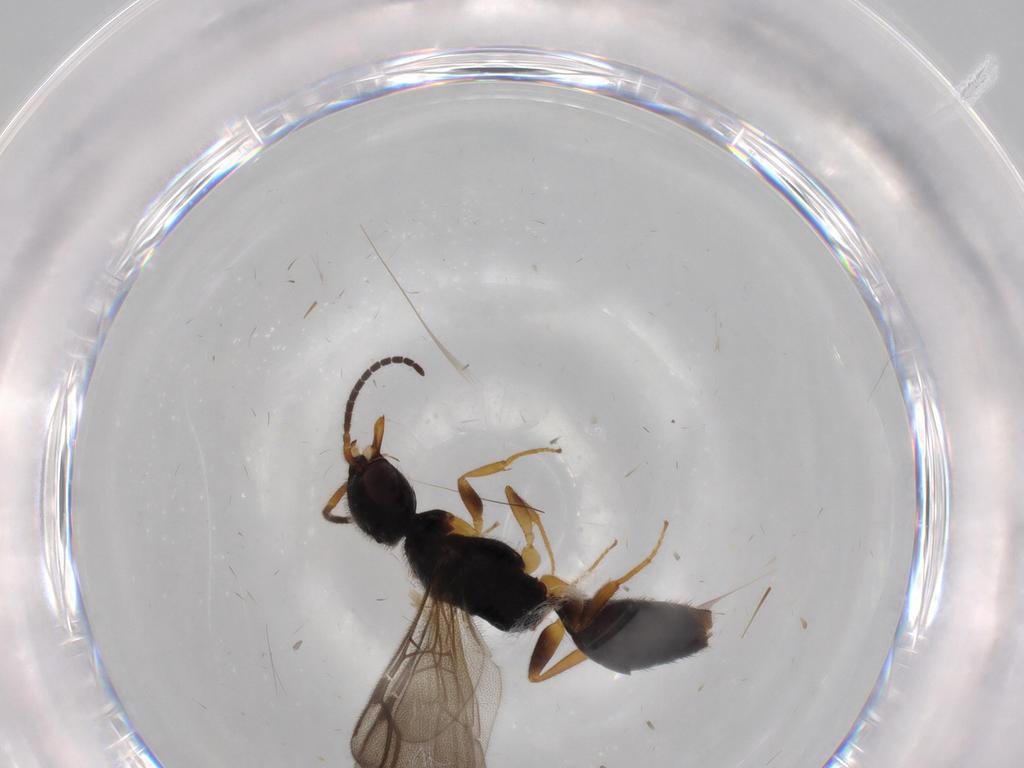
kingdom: Animalia
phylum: Arthropoda
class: Insecta
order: Hymenoptera
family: Bethylidae
